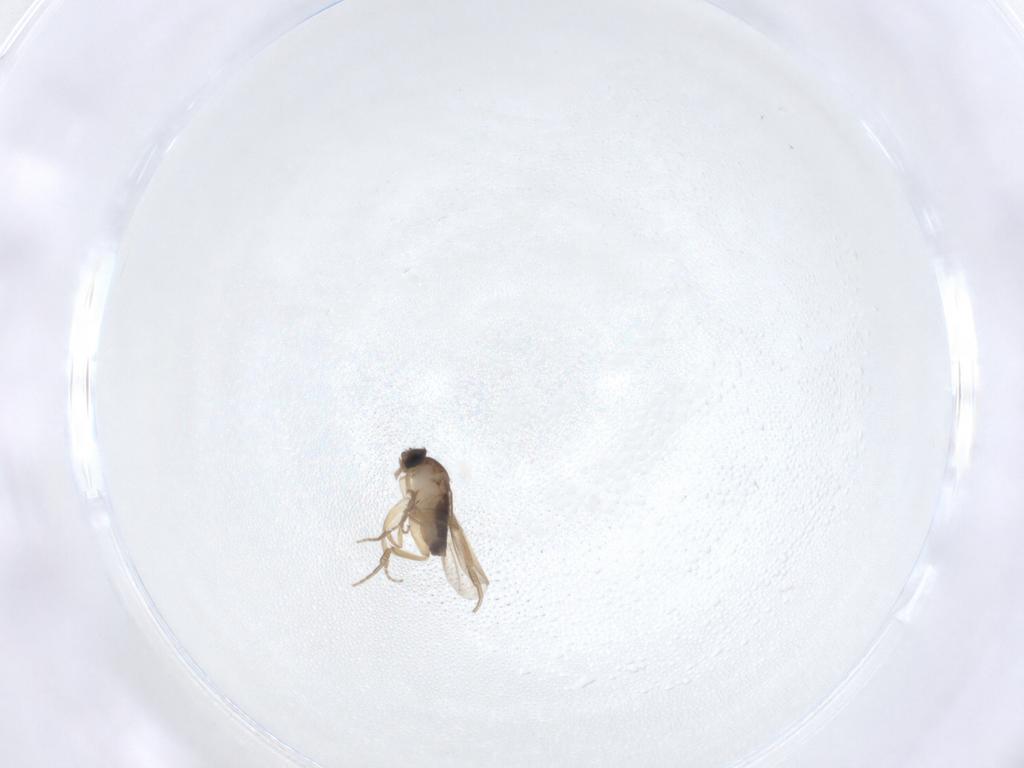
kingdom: Animalia
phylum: Arthropoda
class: Insecta
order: Diptera
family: Phoridae
